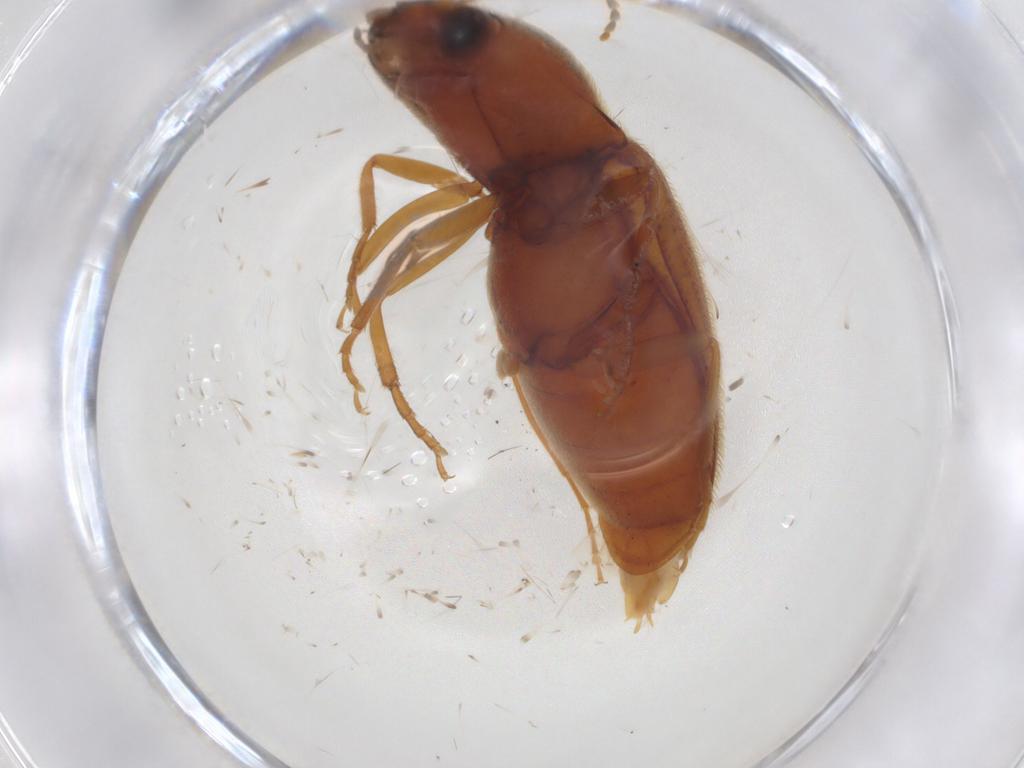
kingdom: Animalia
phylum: Arthropoda
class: Insecta
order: Coleoptera
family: Elateridae
